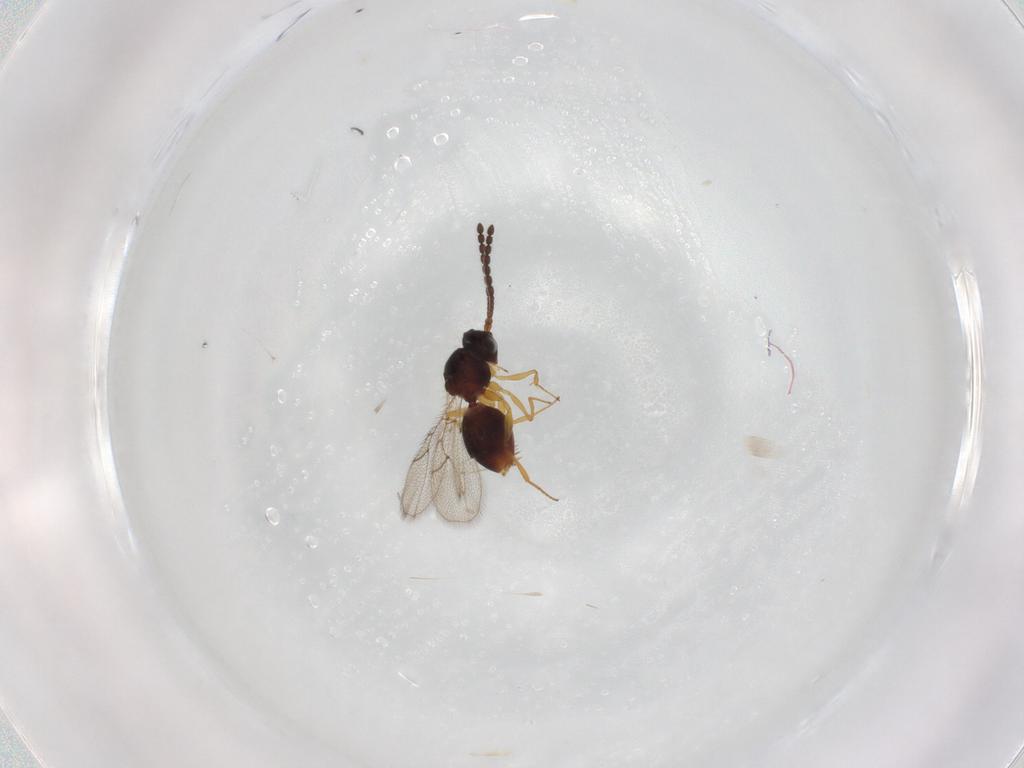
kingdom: Animalia
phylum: Arthropoda
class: Insecta
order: Hymenoptera
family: Figitidae
